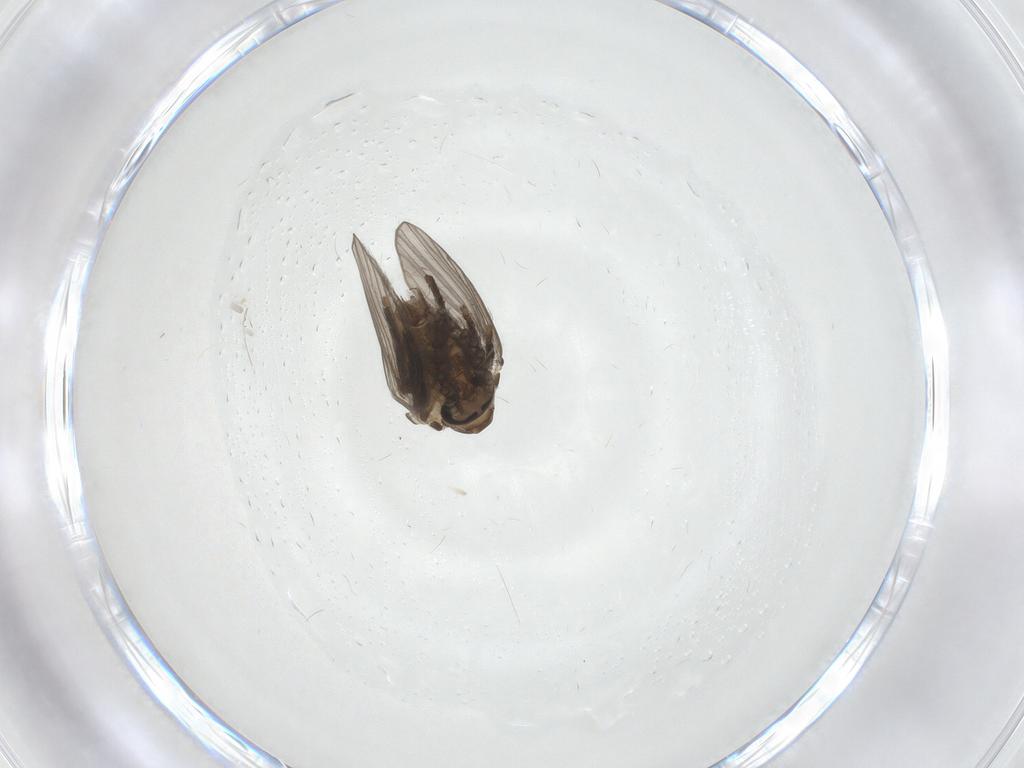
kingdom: Animalia
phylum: Arthropoda
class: Insecta
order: Diptera
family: Psychodidae
